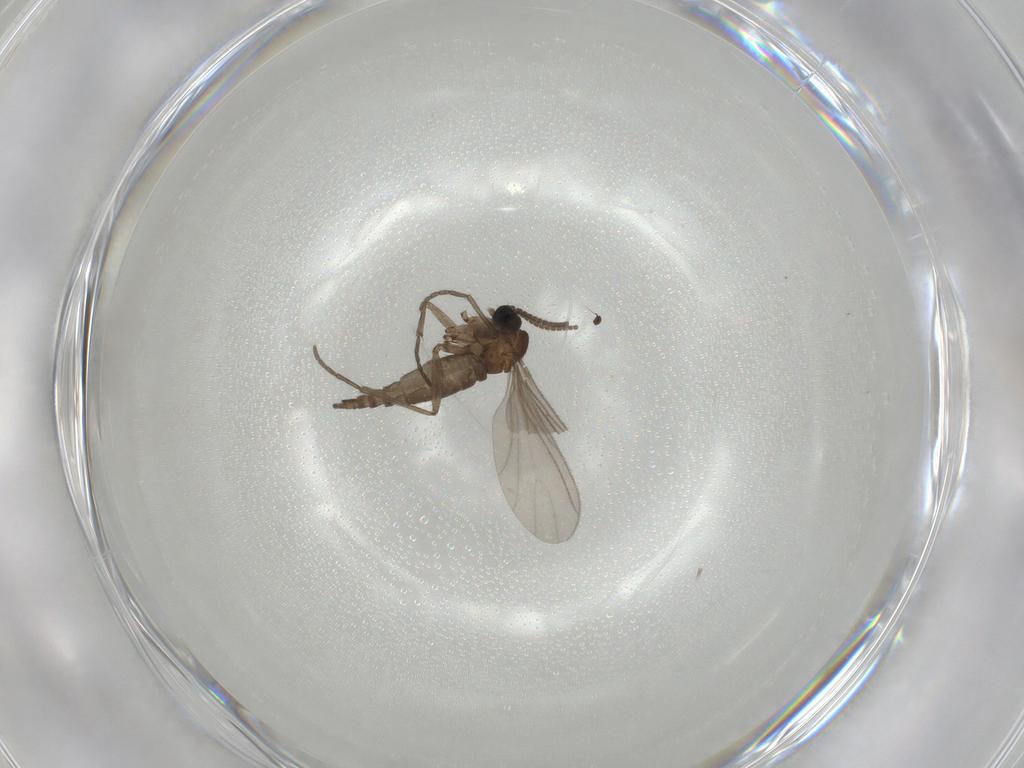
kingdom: Animalia
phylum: Arthropoda
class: Insecta
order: Diptera
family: Sciaridae
